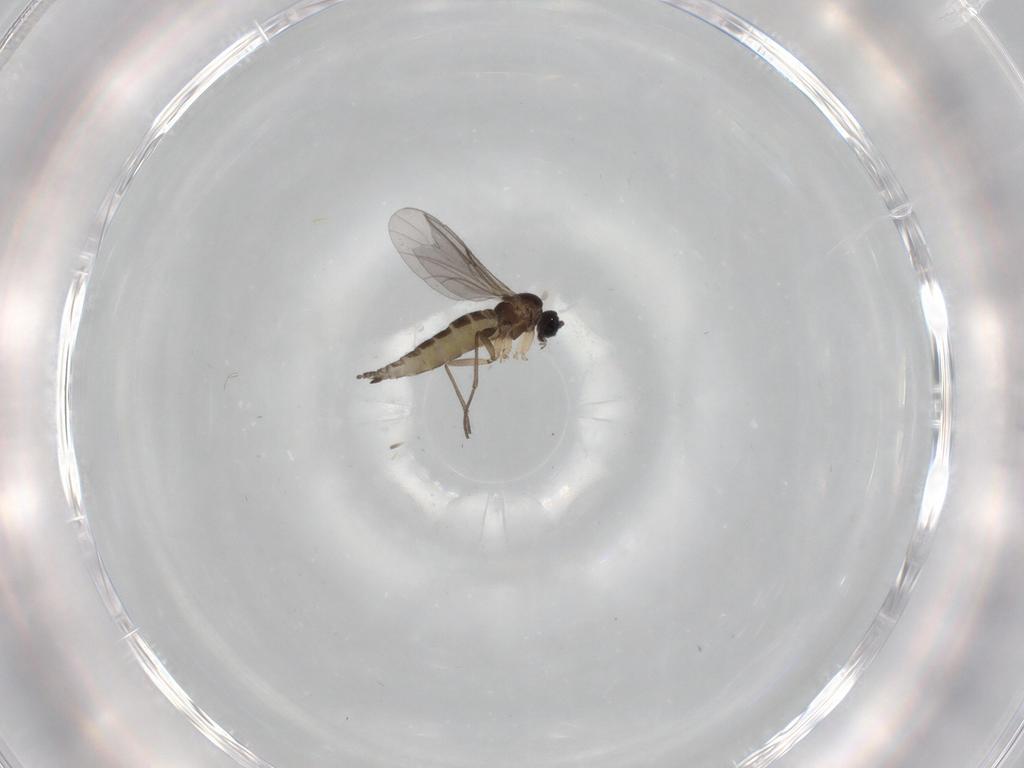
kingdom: Animalia
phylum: Arthropoda
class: Insecta
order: Diptera
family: Sciaridae
